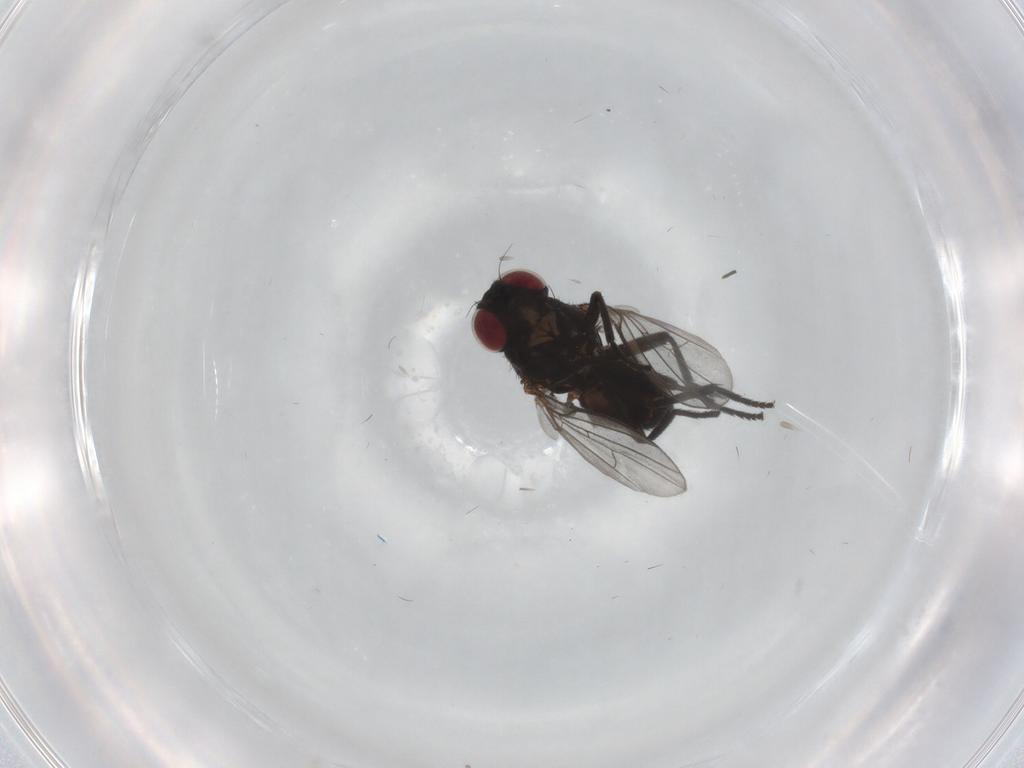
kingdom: Animalia
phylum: Arthropoda
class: Insecta
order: Diptera
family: Agromyzidae
